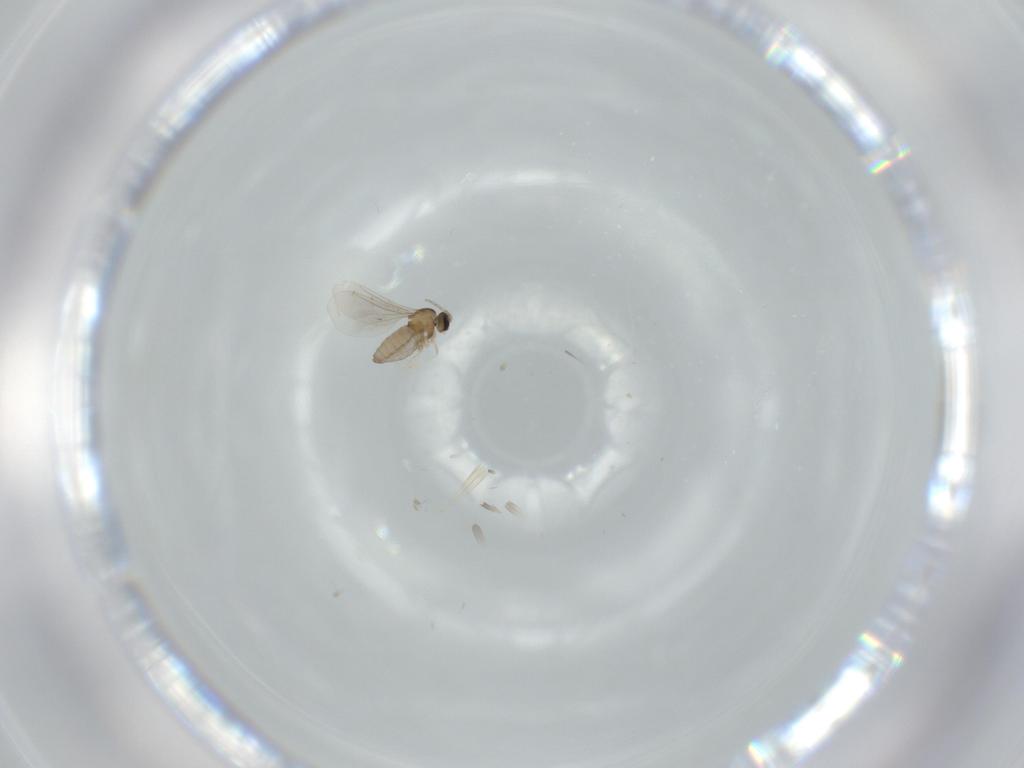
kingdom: Animalia
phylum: Arthropoda
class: Insecta
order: Diptera
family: Cecidomyiidae
